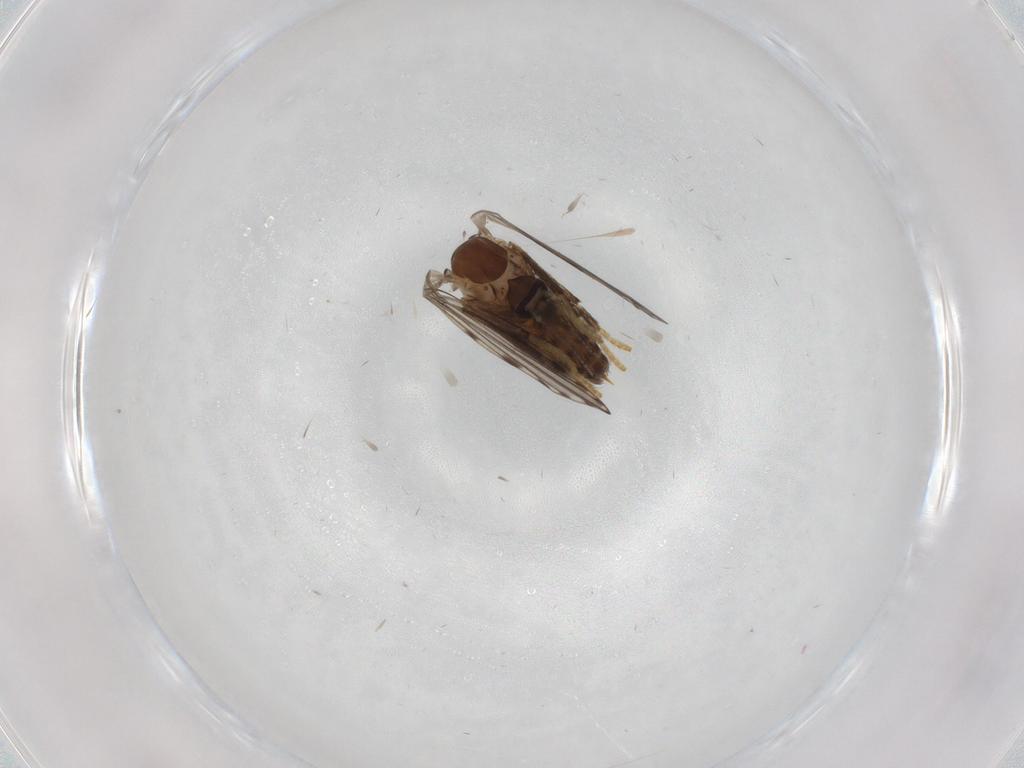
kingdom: Animalia
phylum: Arthropoda
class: Insecta
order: Diptera
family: Psychodidae
